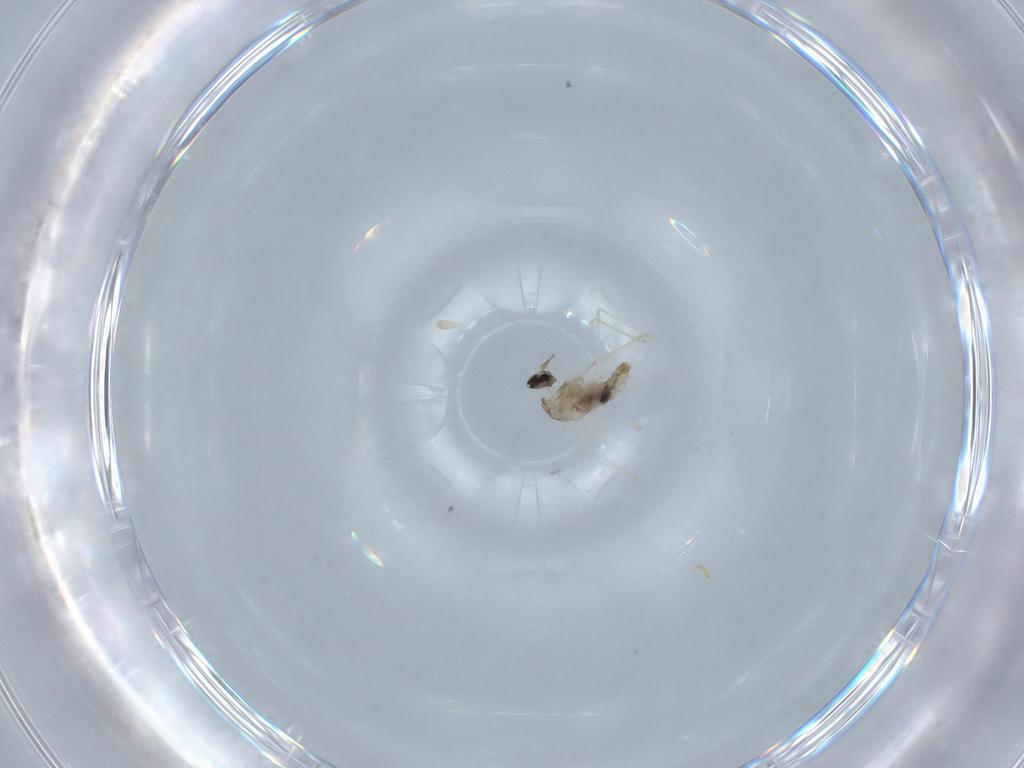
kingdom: Animalia
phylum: Arthropoda
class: Insecta
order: Diptera
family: Cecidomyiidae
